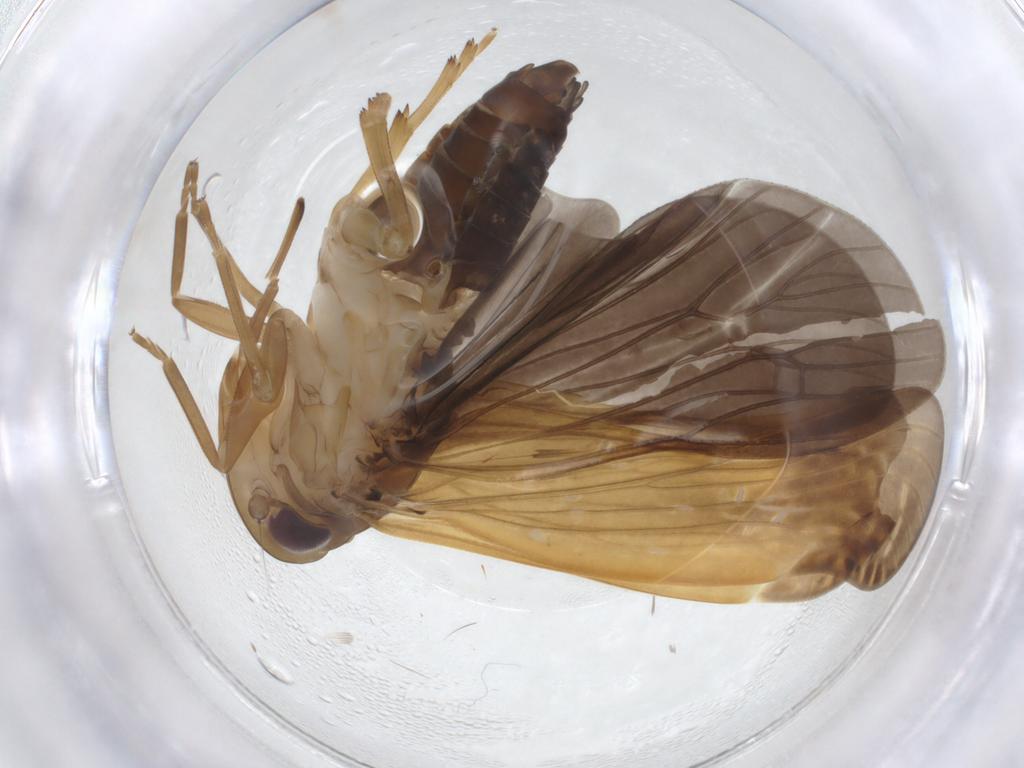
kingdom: Animalia
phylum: Arthropoda
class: Insecta
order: Hemiptera
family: Achilidae
